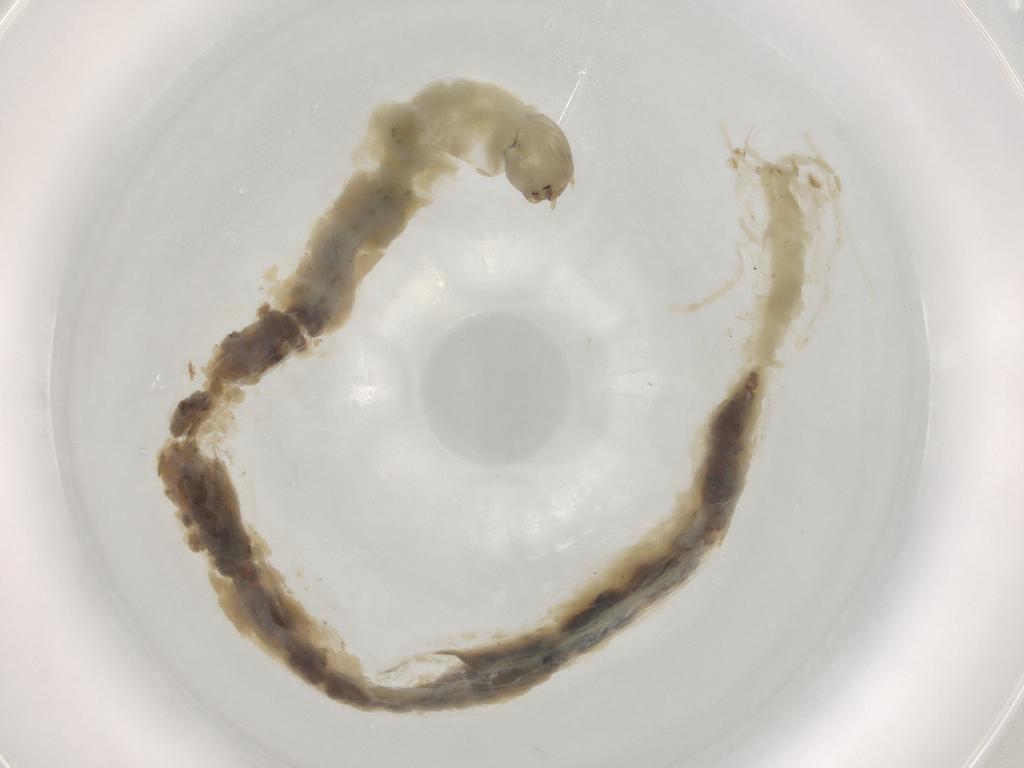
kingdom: Animalia
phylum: Arthropoda
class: Insecta
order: Diptera
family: Chironomidae
